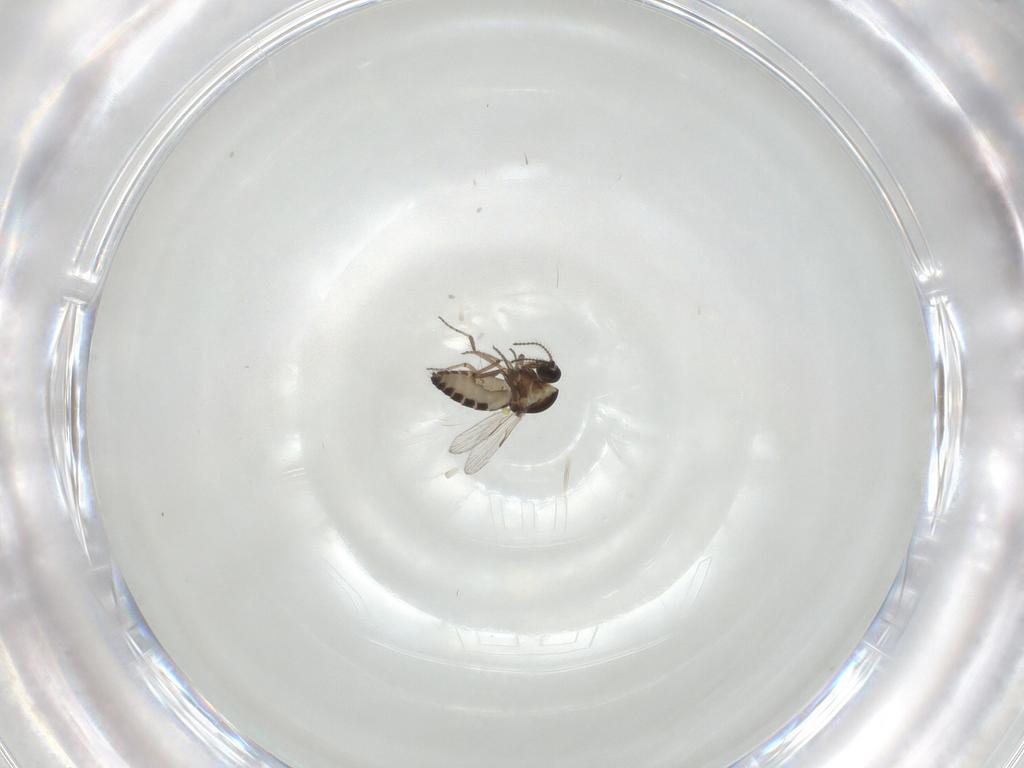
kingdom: Animalia
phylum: Arthropoda
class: Insecta
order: Diptera
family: Ceratopogonidae
